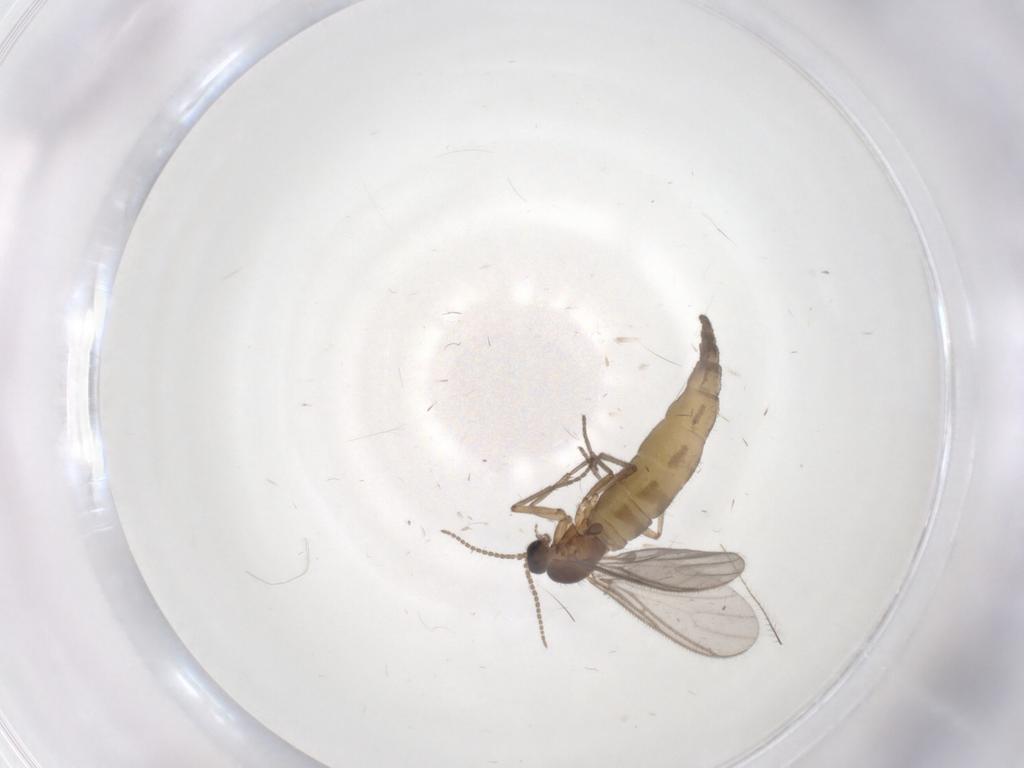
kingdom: Animalia
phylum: Arthropoda
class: Insecta
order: Diptera
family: Sciaridae
